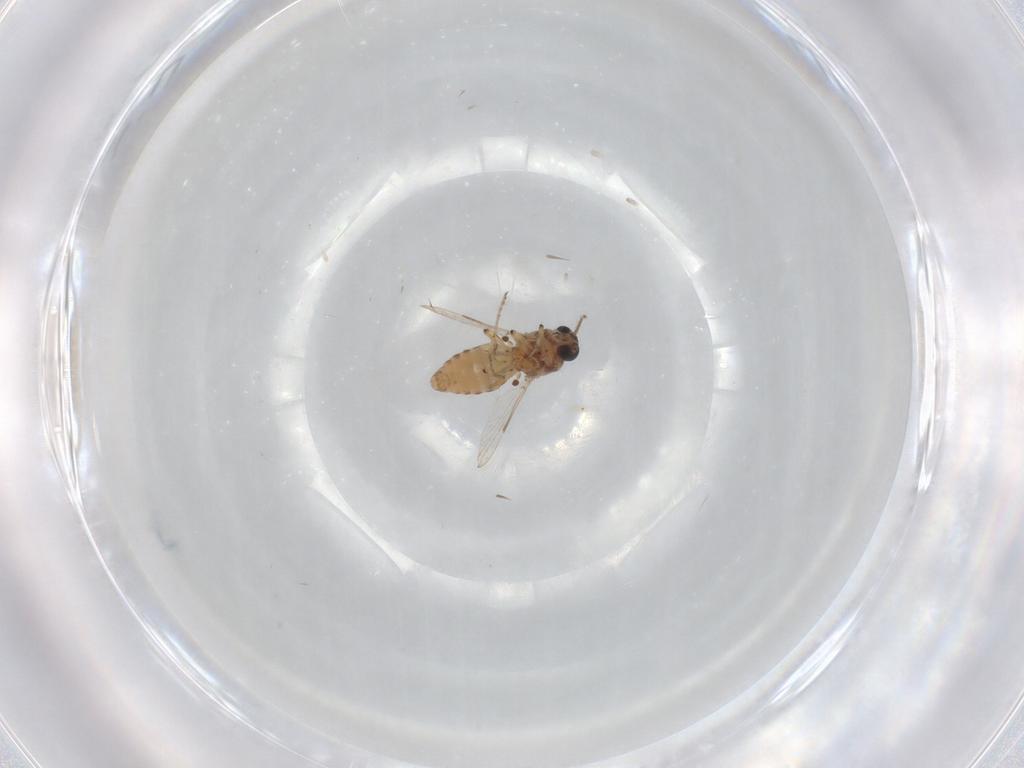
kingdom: Animalia
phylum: Arthropoda
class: Insecta
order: Diptera
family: Ceratopogonidae
